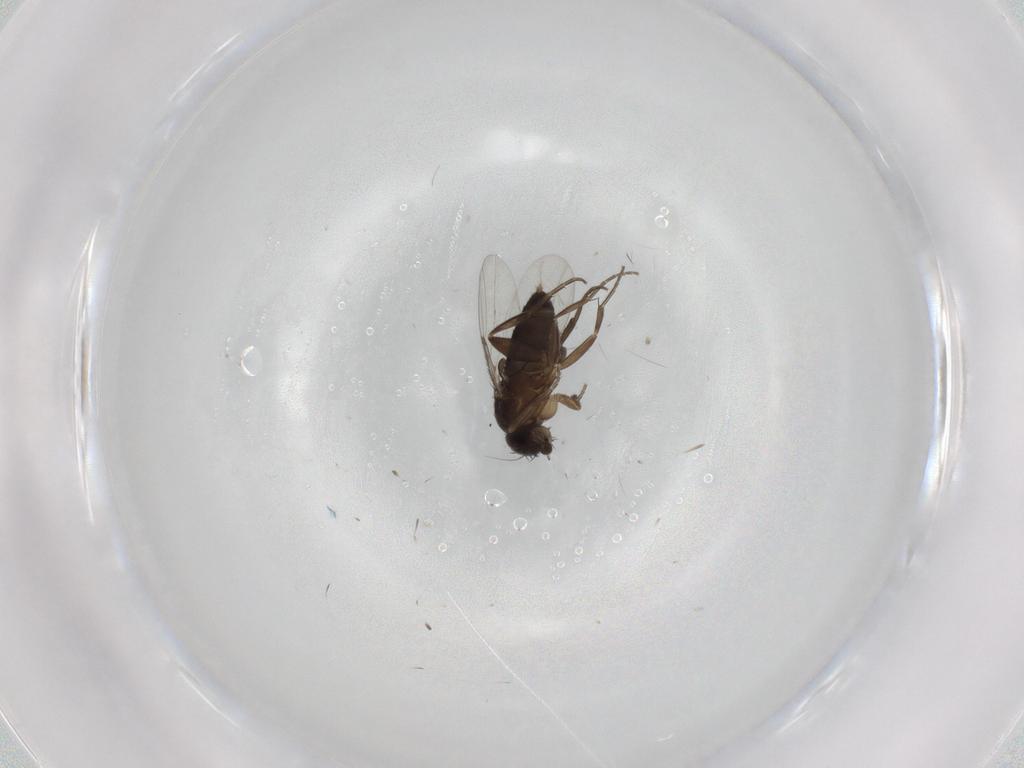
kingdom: Animalia
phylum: Arthropoda
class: Insecta
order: Diptera
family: Phoridae
